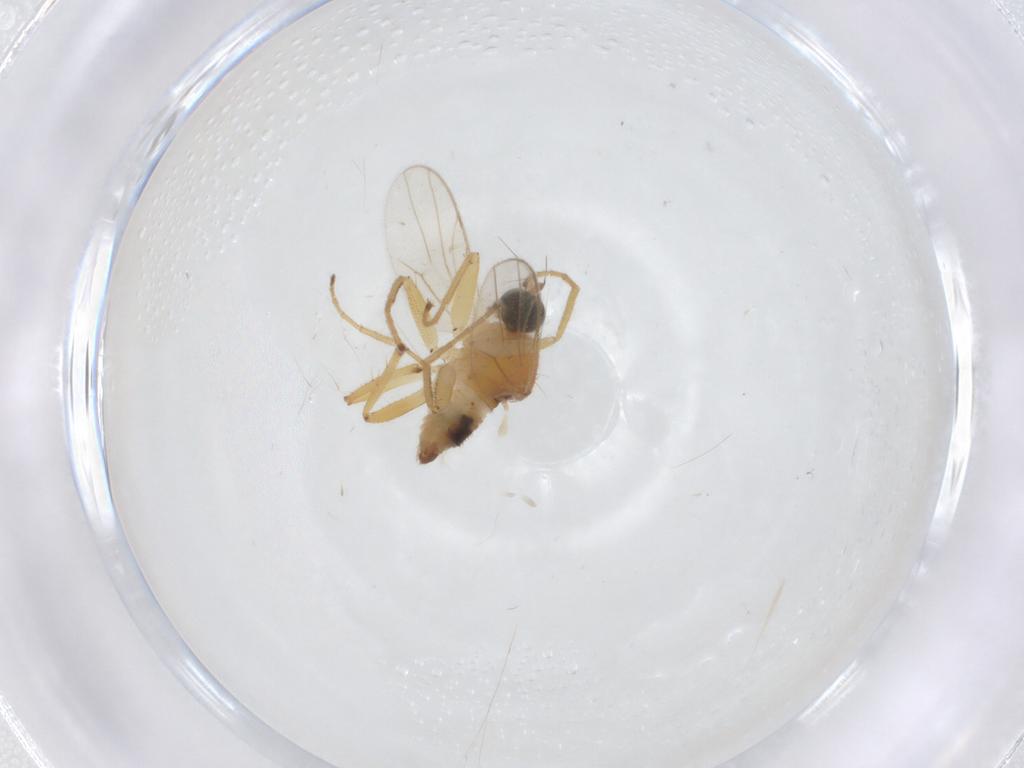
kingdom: Animalia
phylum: Arthropoda
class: Insecta
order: Diptera
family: Hybotidae
